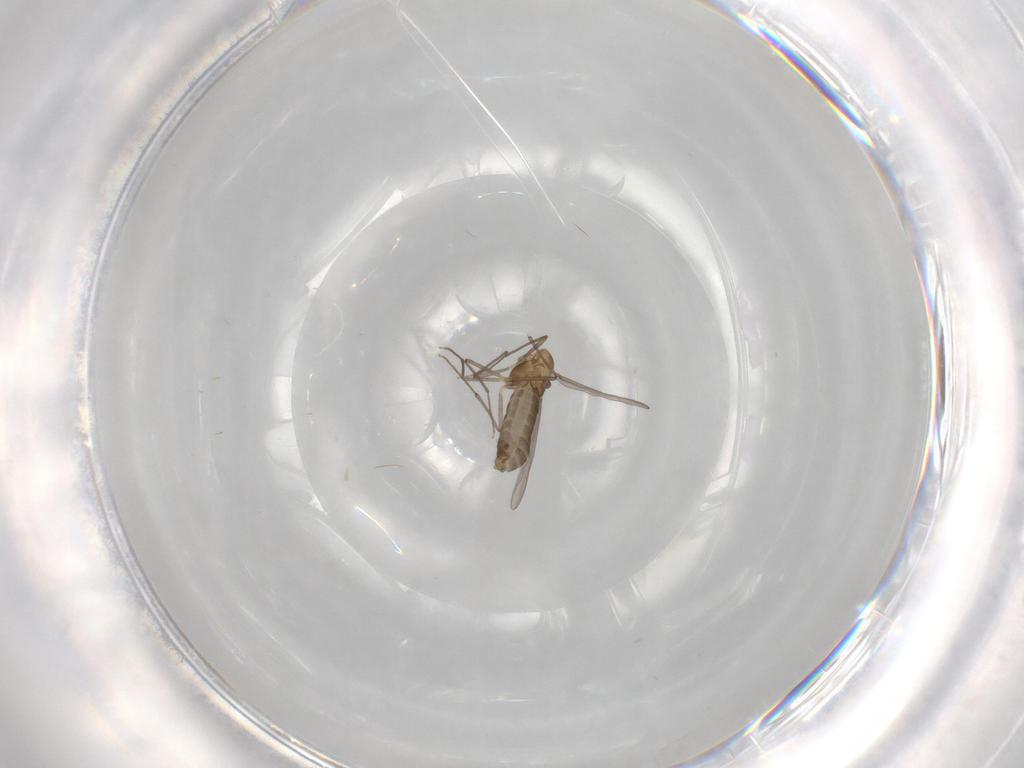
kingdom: Animalia
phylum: Arthropoda
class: Insecta
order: Diptera
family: Chironomidae
